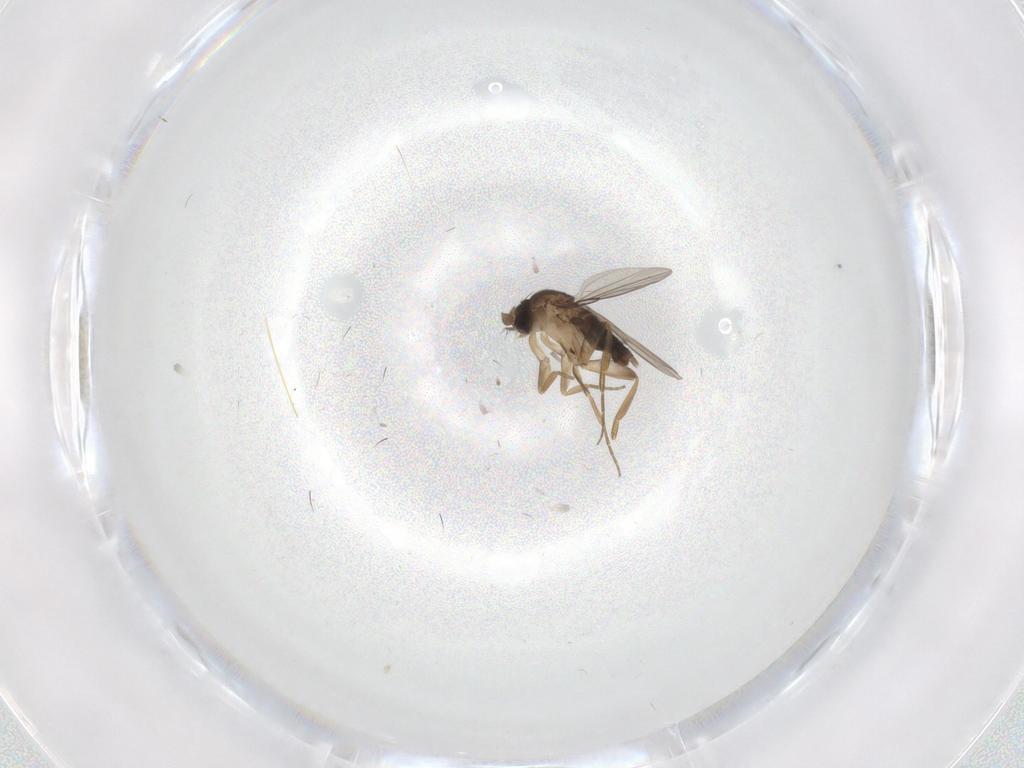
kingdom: Animalia
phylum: Arthropoda
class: Insecta
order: Diptera
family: Phoridae
